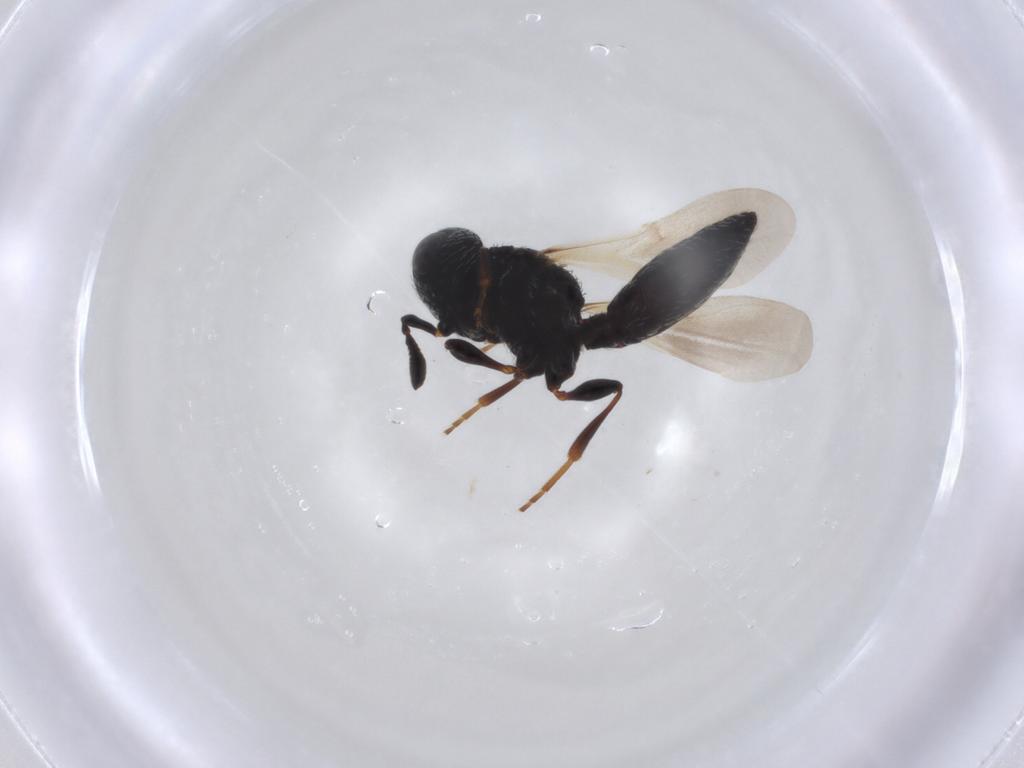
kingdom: Animalia
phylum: Arthropoda
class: Insecta
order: Hymenoptera
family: Scelionidae
